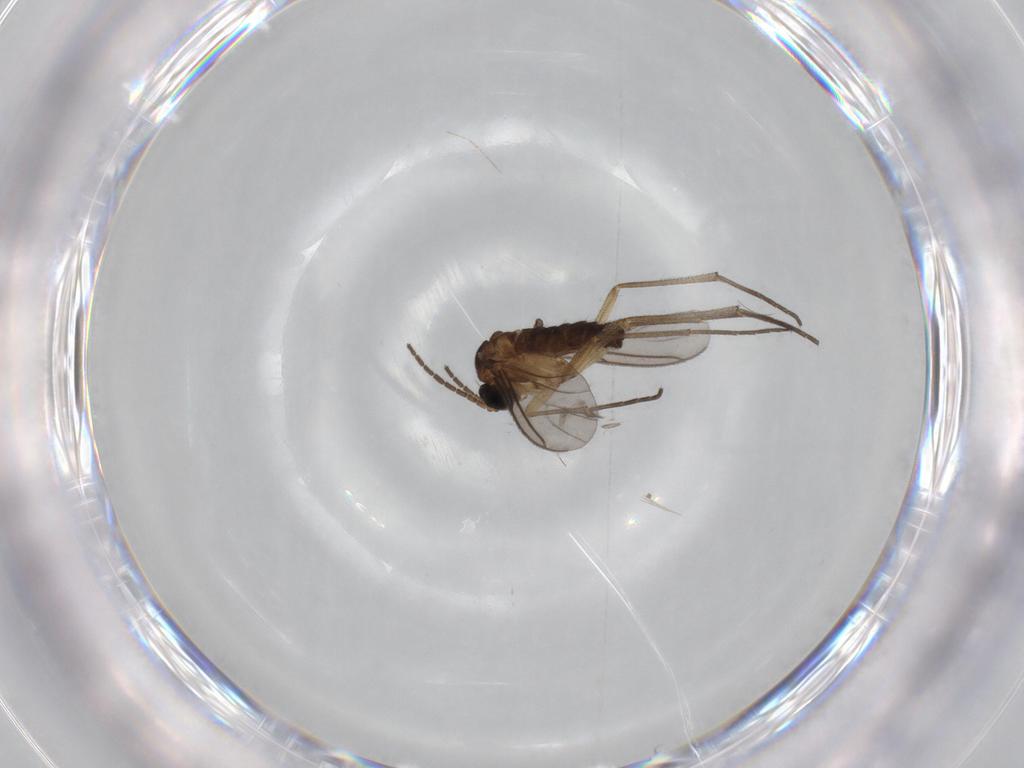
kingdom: Animalia
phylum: Arthropoda
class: Insecta
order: Diptera
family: Sciaridae
